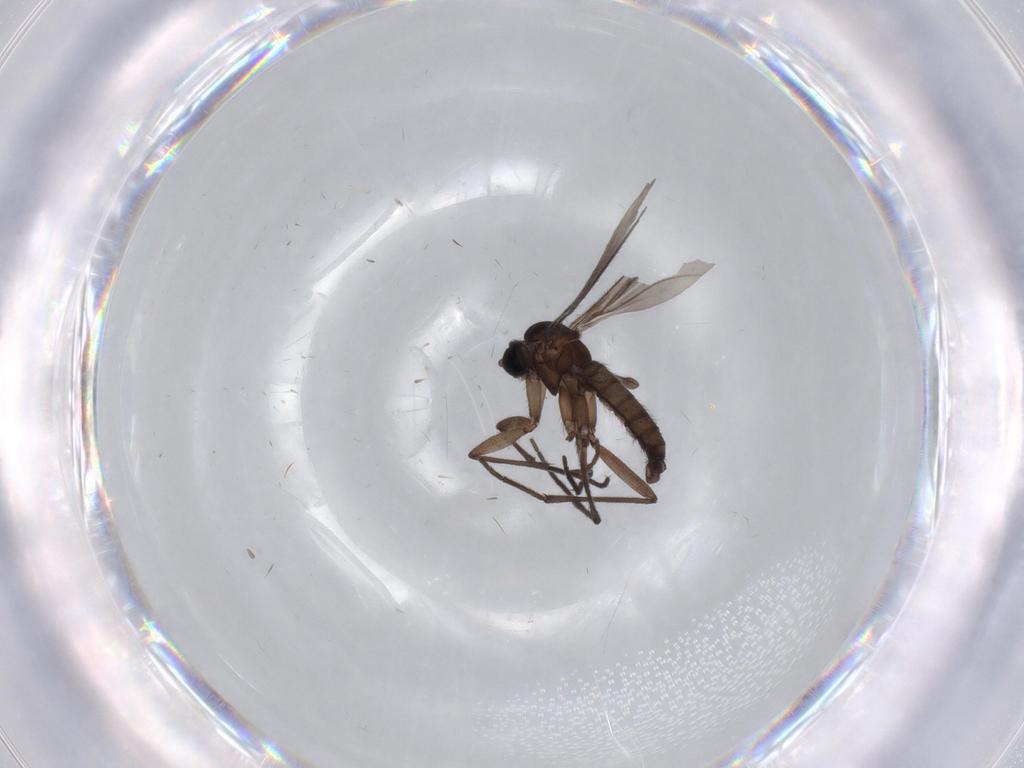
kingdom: Animalia
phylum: Arthropoda
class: Insecta
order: Diptera
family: Sciaridae
